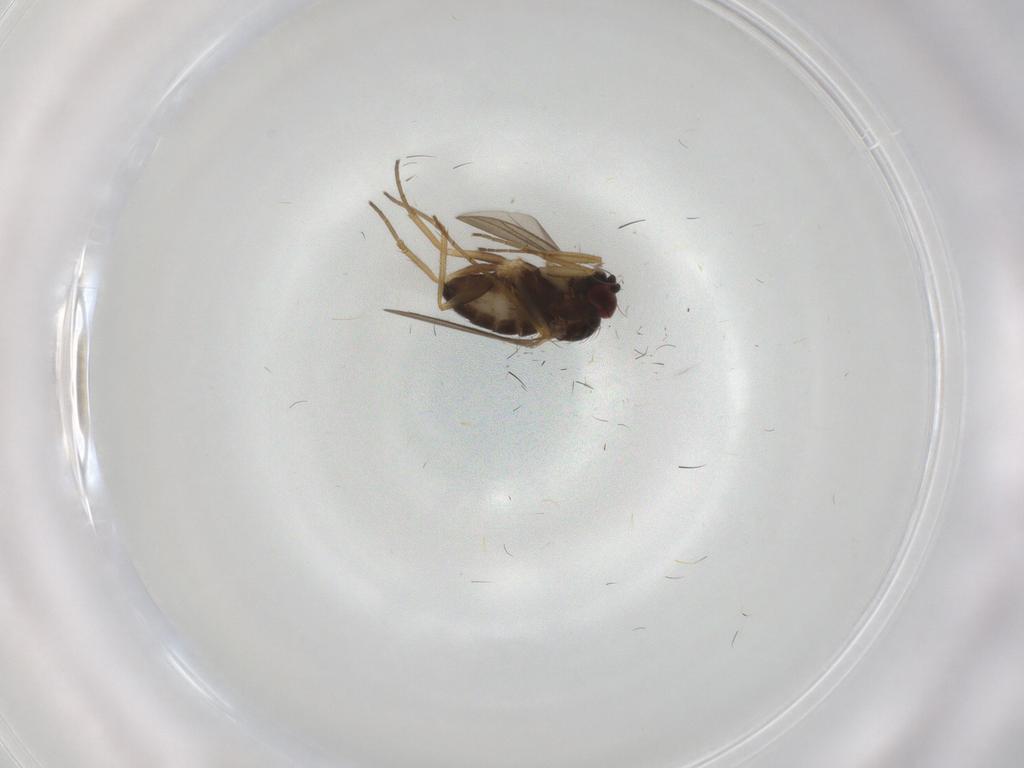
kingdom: Animalia
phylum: Arthropoda
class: Insecta
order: Diptera
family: Dolichopodidae
